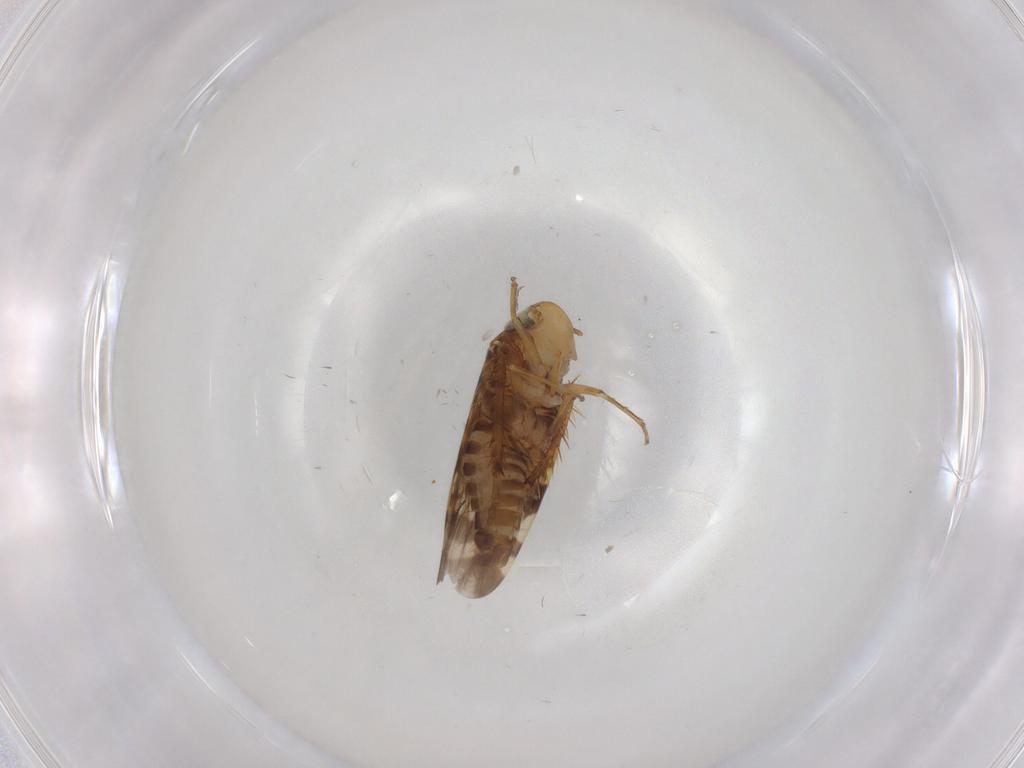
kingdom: Animalia
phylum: Arthropoda
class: Insecta
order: Hemiptera
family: Cicadellidae
